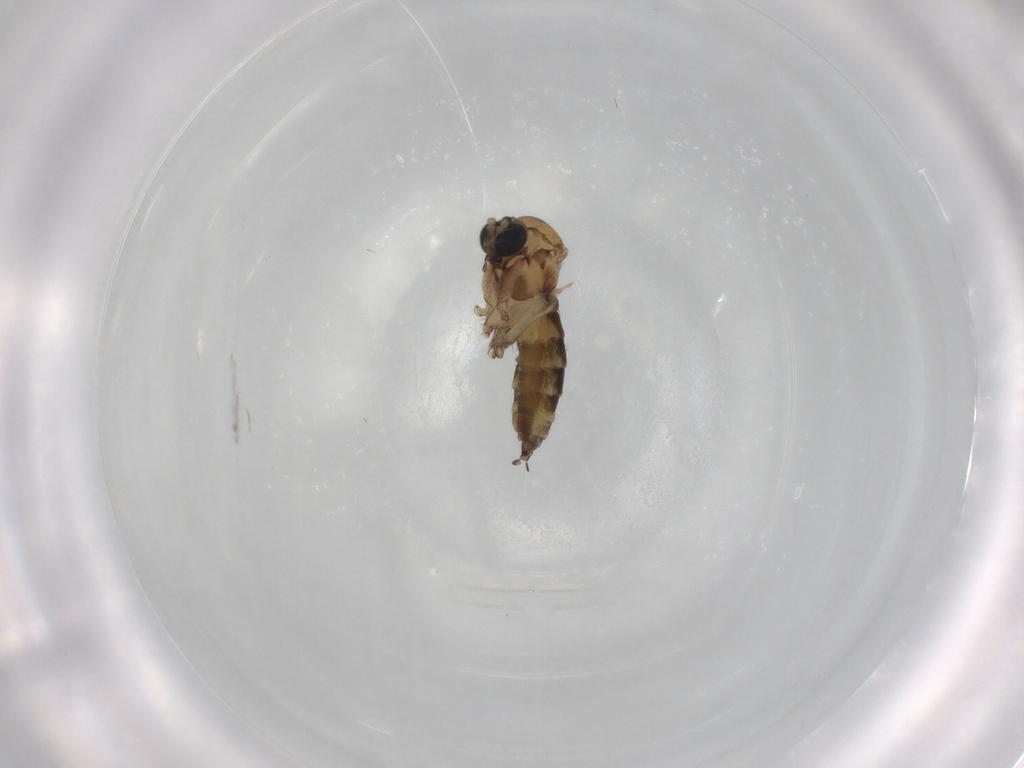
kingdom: Animalia
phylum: Arthropoda
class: Insecta
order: Diptera
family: Sciaridae
